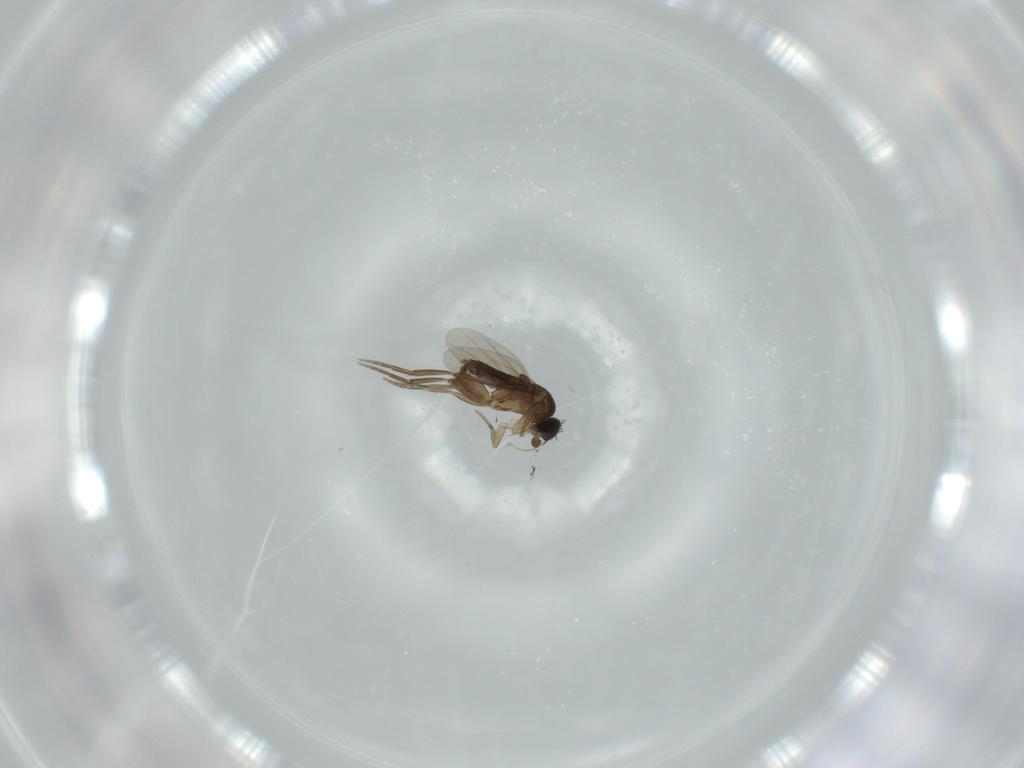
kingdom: Animalia
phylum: Arthropoda
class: Insecta
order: Diptera
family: Phoridae
